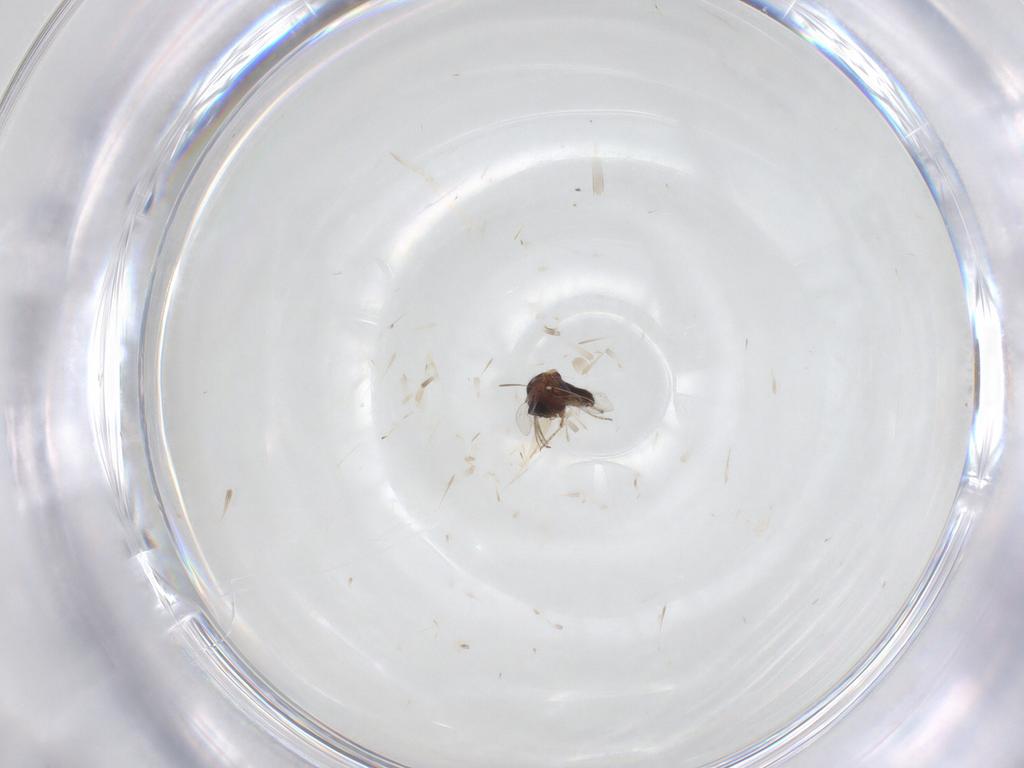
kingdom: Animalia
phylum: Arthropoda
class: Insecta
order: Diptera
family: Ceratopogonidae
